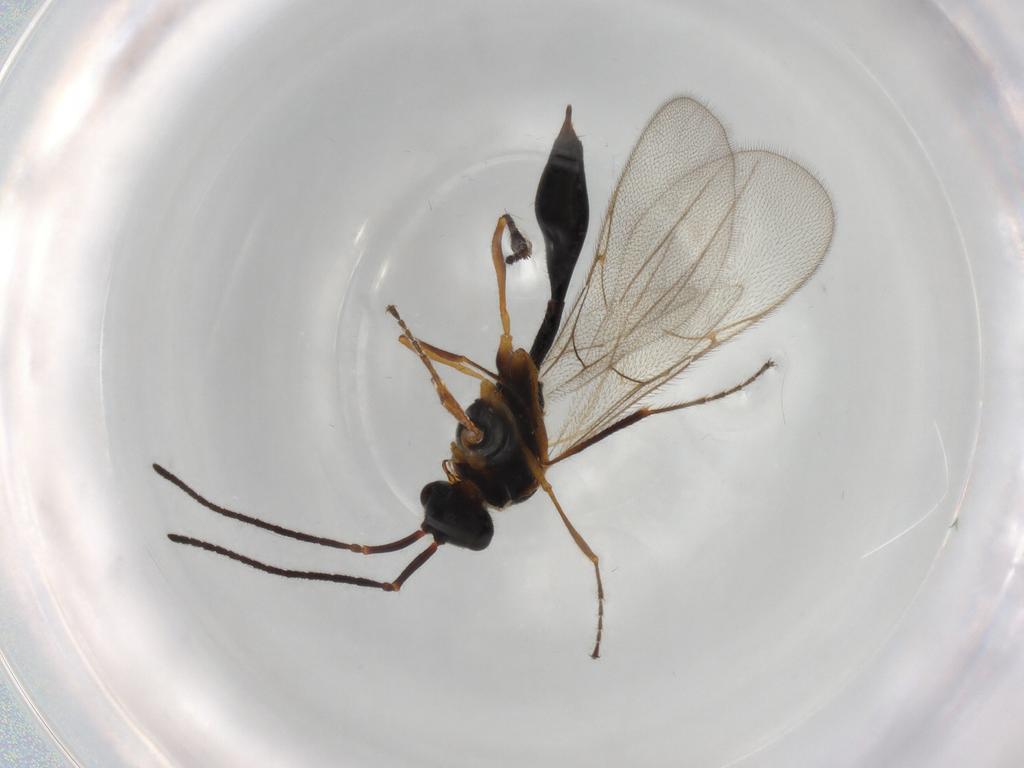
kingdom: Animalia
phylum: Arthropoda
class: Insecta
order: Hymenoptera
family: Diapriidae
